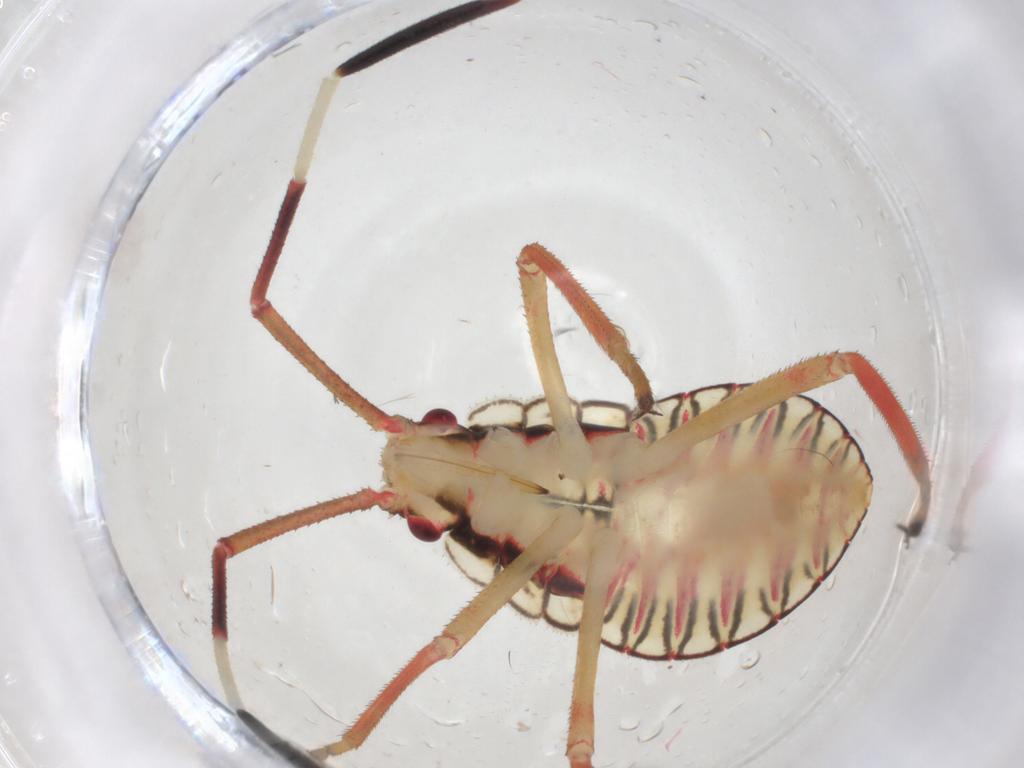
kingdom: Animalia
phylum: Arthropoda
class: Insecta
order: Hemiptera
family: Coreidae
